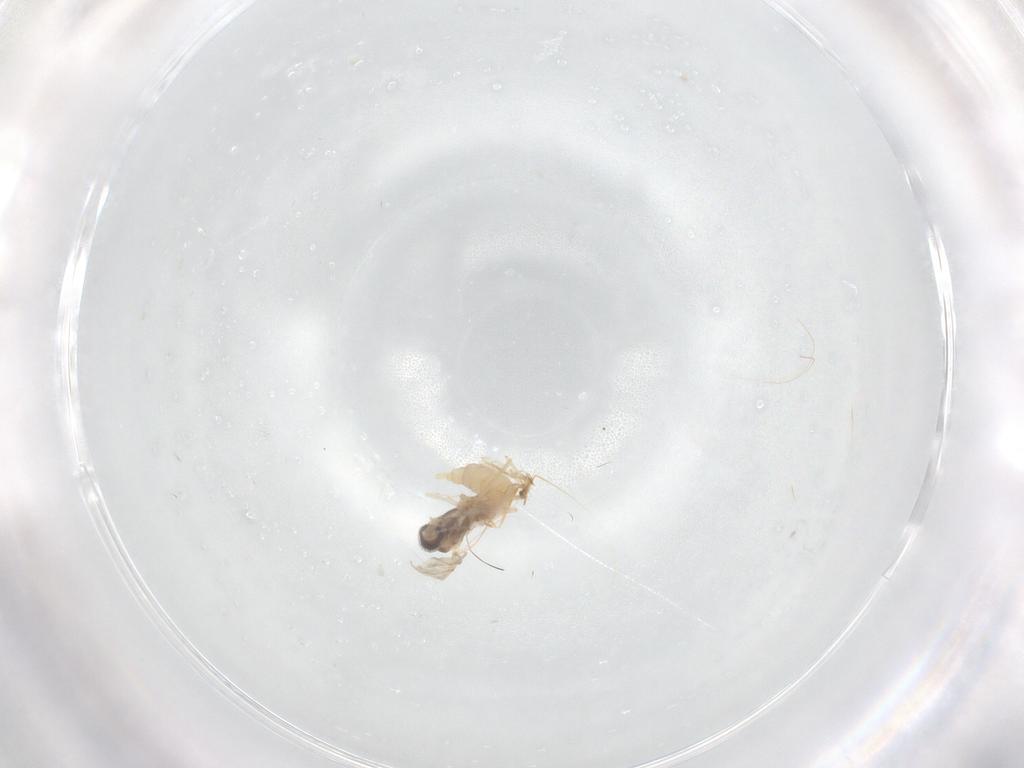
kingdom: Animalia
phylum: Arthropoda
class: Insecta
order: Diptera
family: Cecidomyiidae
